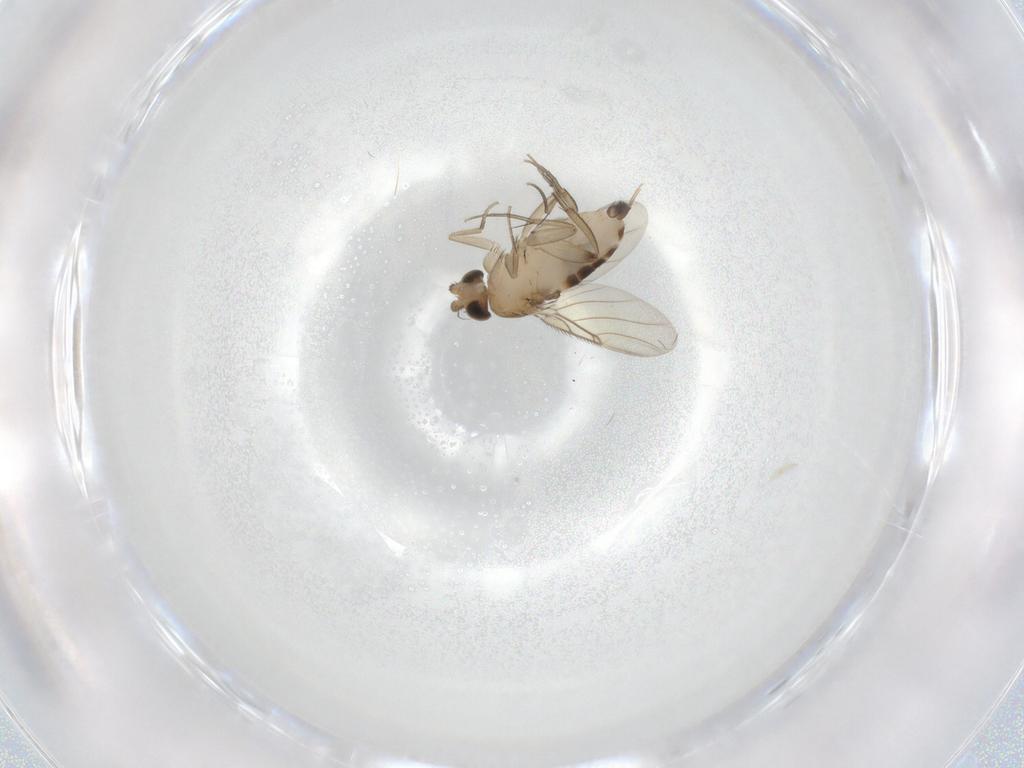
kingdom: Animalia
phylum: Arthropoda
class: Insecta
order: Diptera
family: Phoridae
